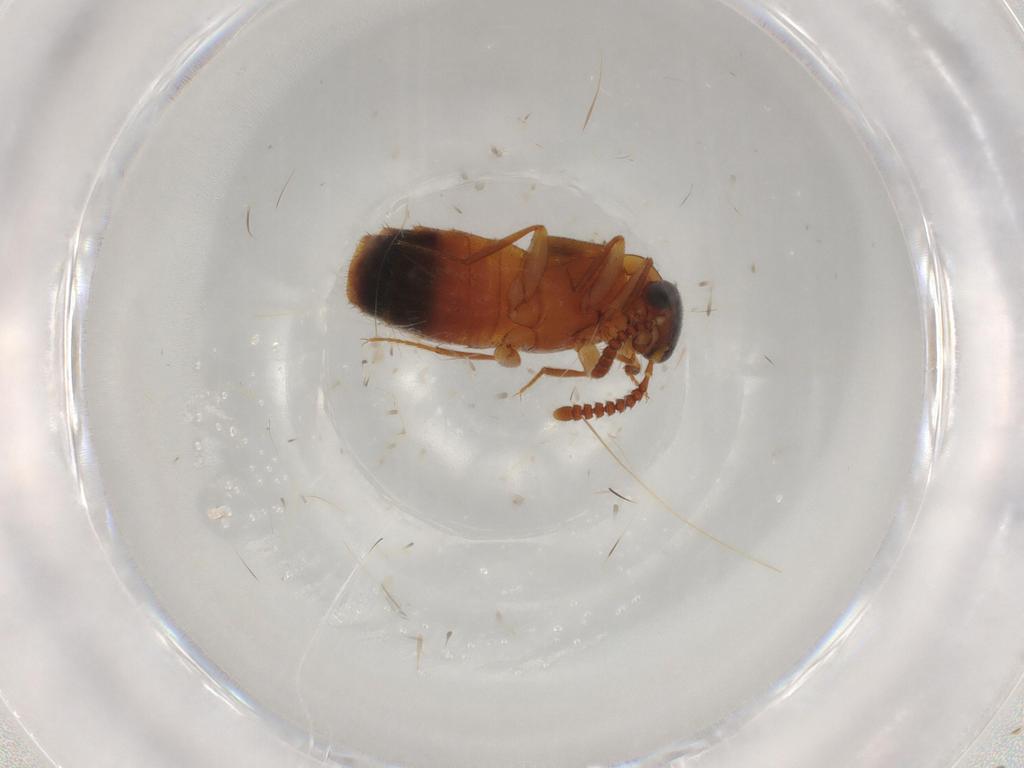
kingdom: Animalia
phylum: Arthropoda
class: Insecta
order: Coleoptera
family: Staphylinidae
